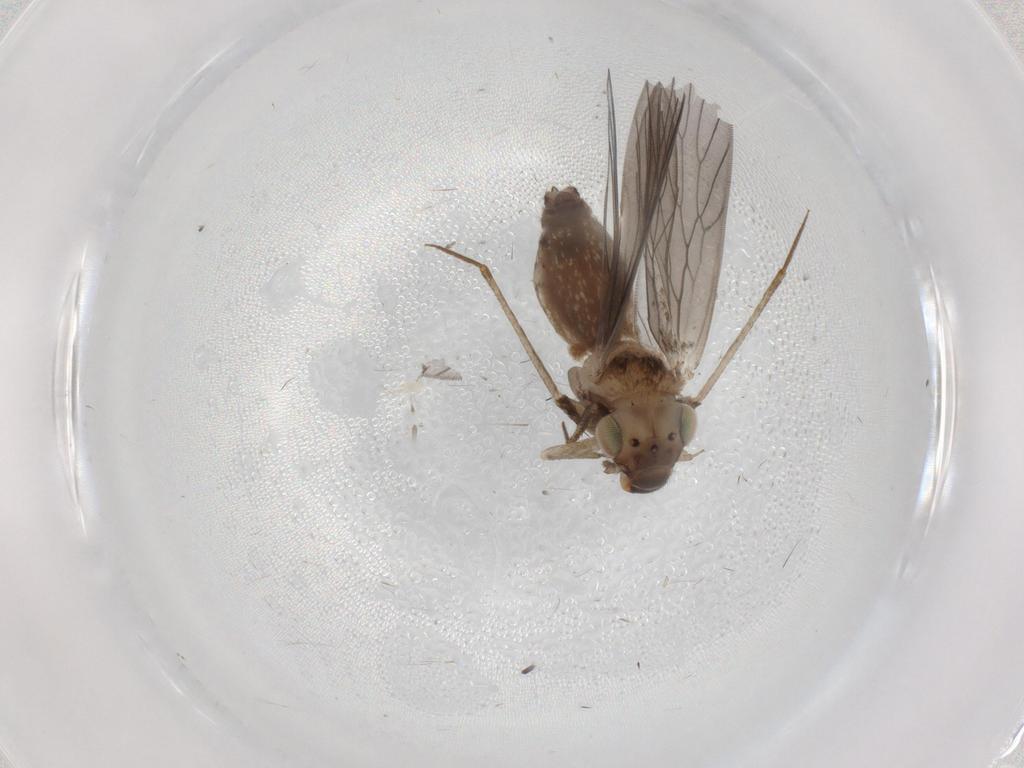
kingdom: Animalia
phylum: Arthropoda
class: Insecta
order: Psocodea
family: Lepidopsocidae
